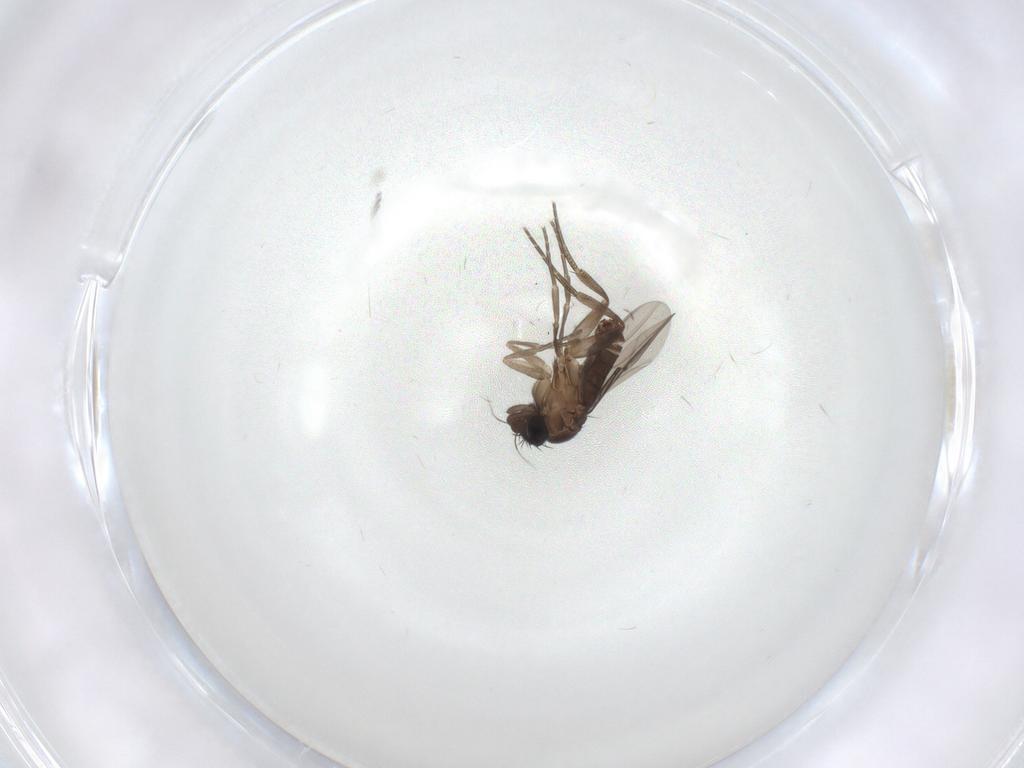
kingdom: Animalia
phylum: Arthropoda
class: Insecta
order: Diptera
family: Phoridae
